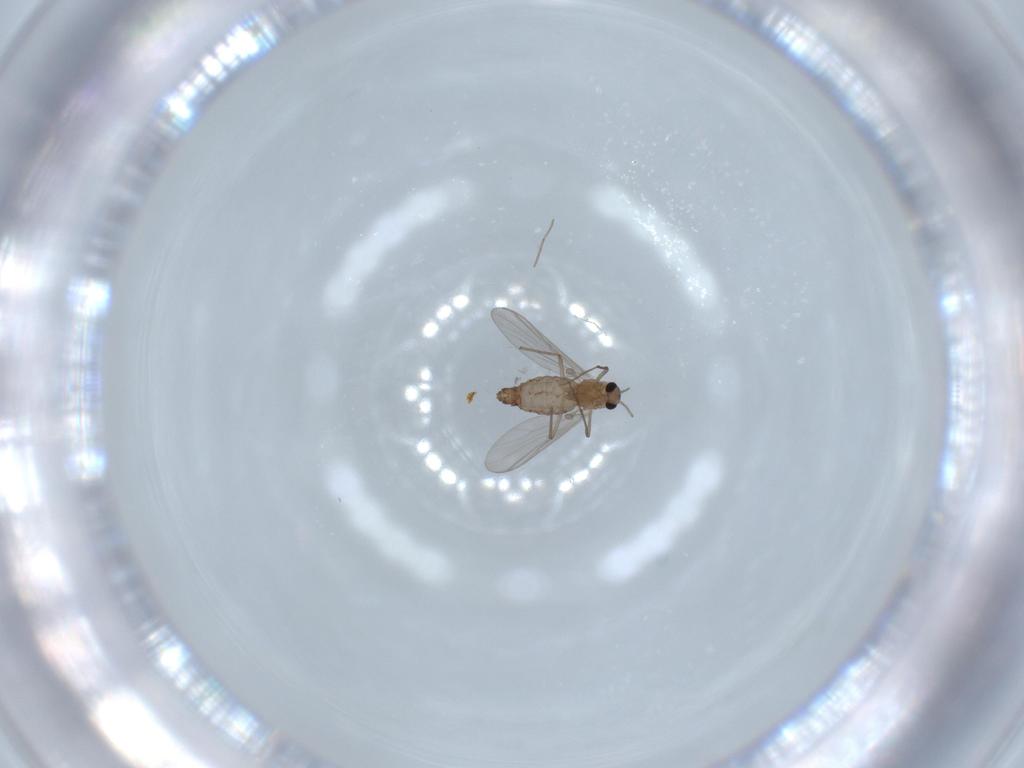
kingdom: Animalia
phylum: Arthropoda
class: Insecta
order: Diptera
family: Chironomidae
